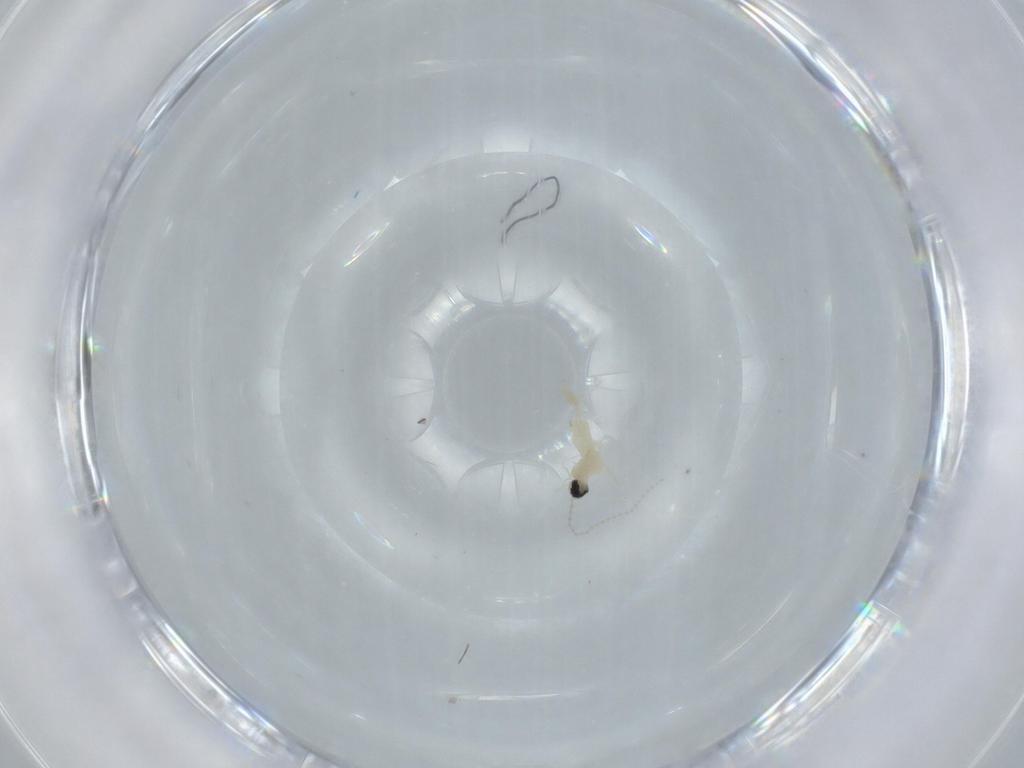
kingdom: Animalia
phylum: Arthropoda
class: Insecta
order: Diptera
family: Cecidomyiidae
